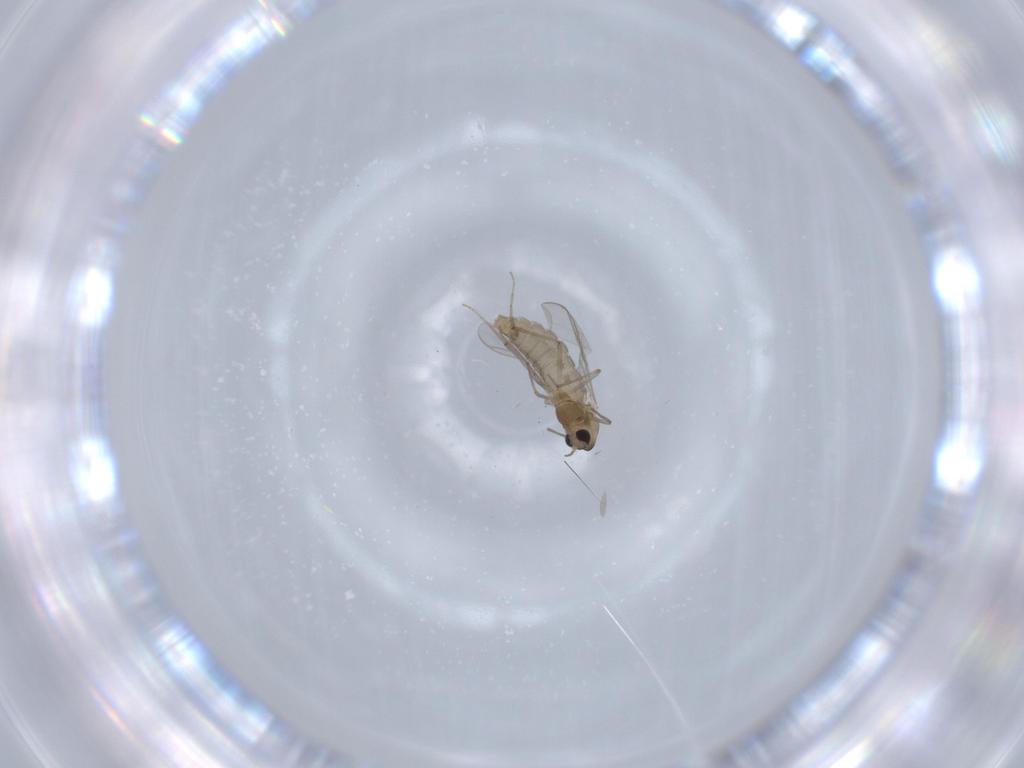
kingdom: Animalia
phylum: Arthropoda
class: Insecta
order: Diptera
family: Chironomidae
